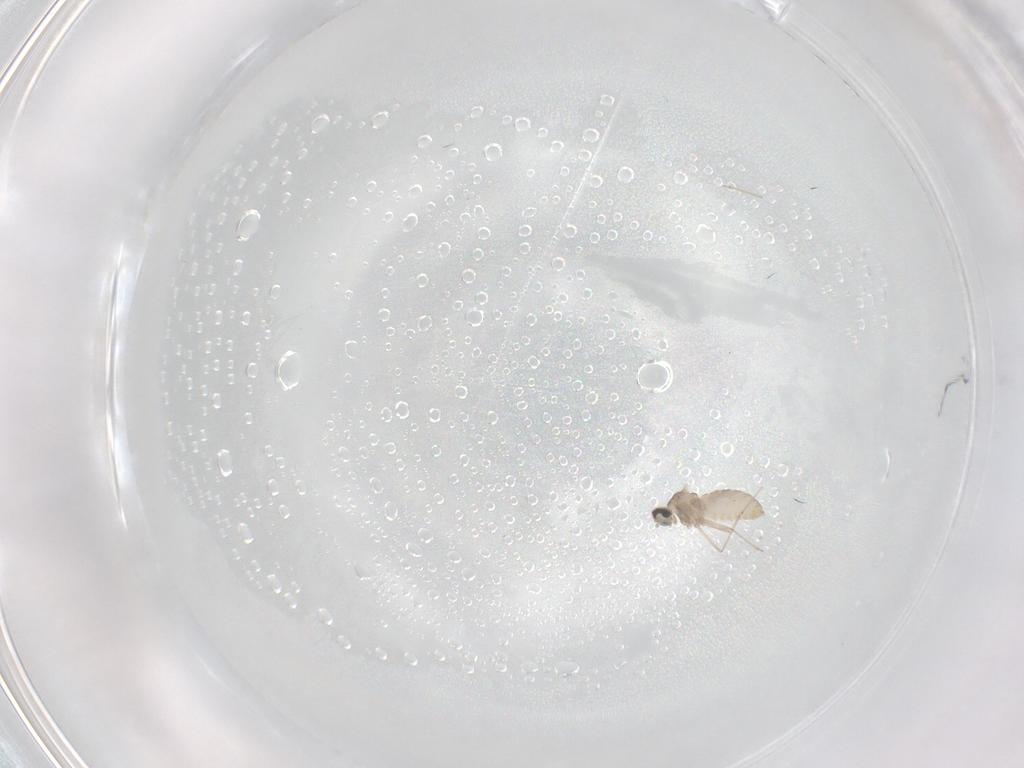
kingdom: Animalia
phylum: Arthropoda
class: Insecta
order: Diptera
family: Cecidomyiidae
